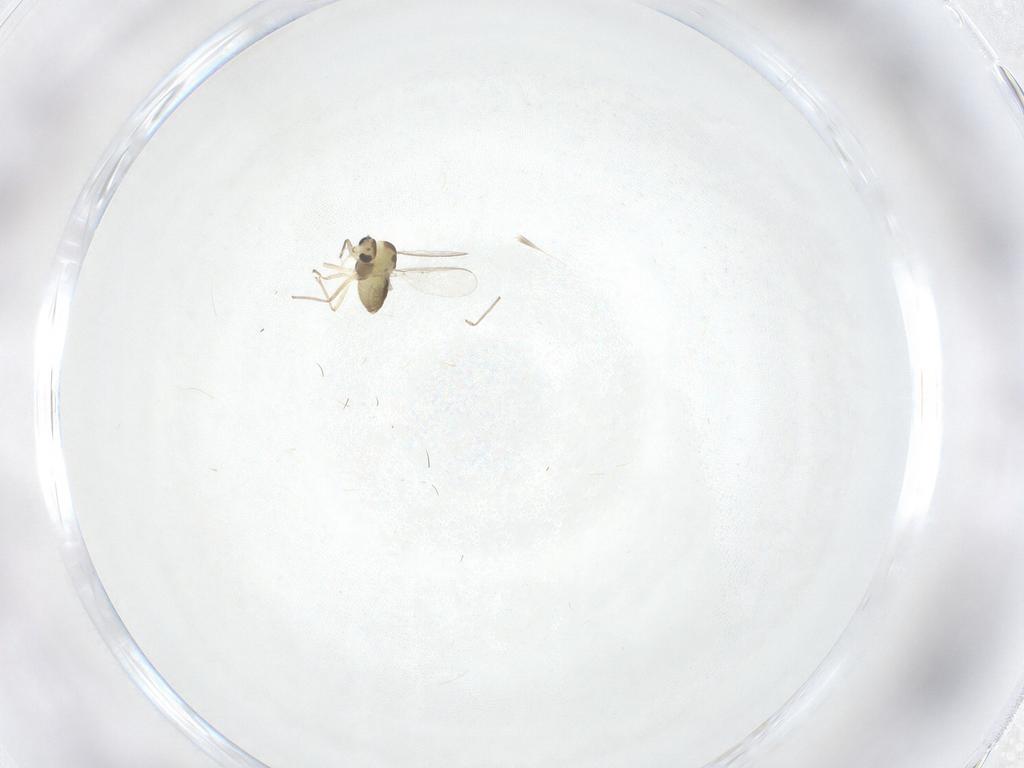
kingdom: Animalia
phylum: Arthropoda
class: Insecta
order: Diptera
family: Chironomidae
